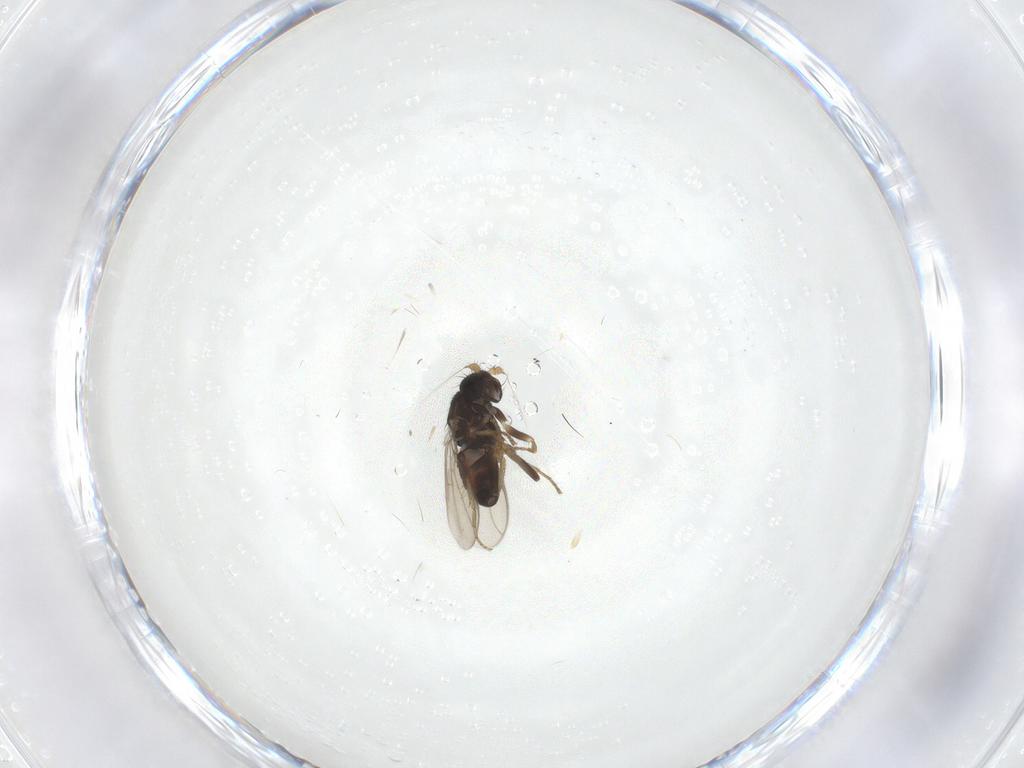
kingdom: Animalia
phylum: Arthropoda
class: Insecta
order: Diptera
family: Sphaeroceridae
